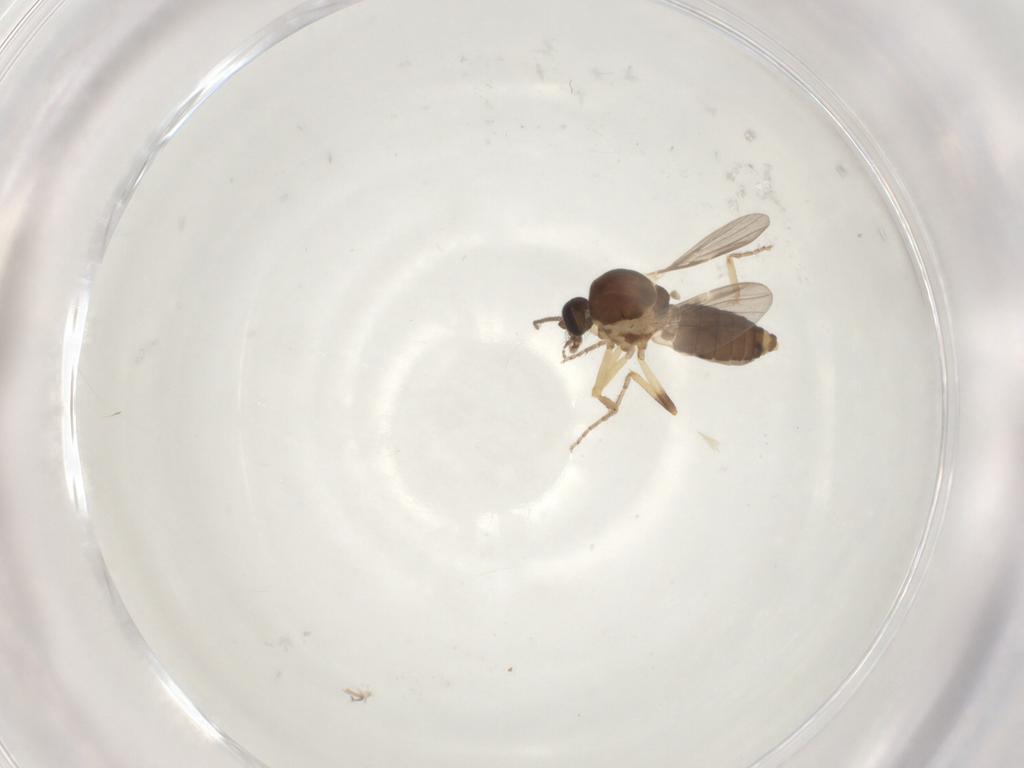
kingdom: Animalia
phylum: Arthropoda
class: Insecta
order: Diptera
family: Ceratopogonidae
